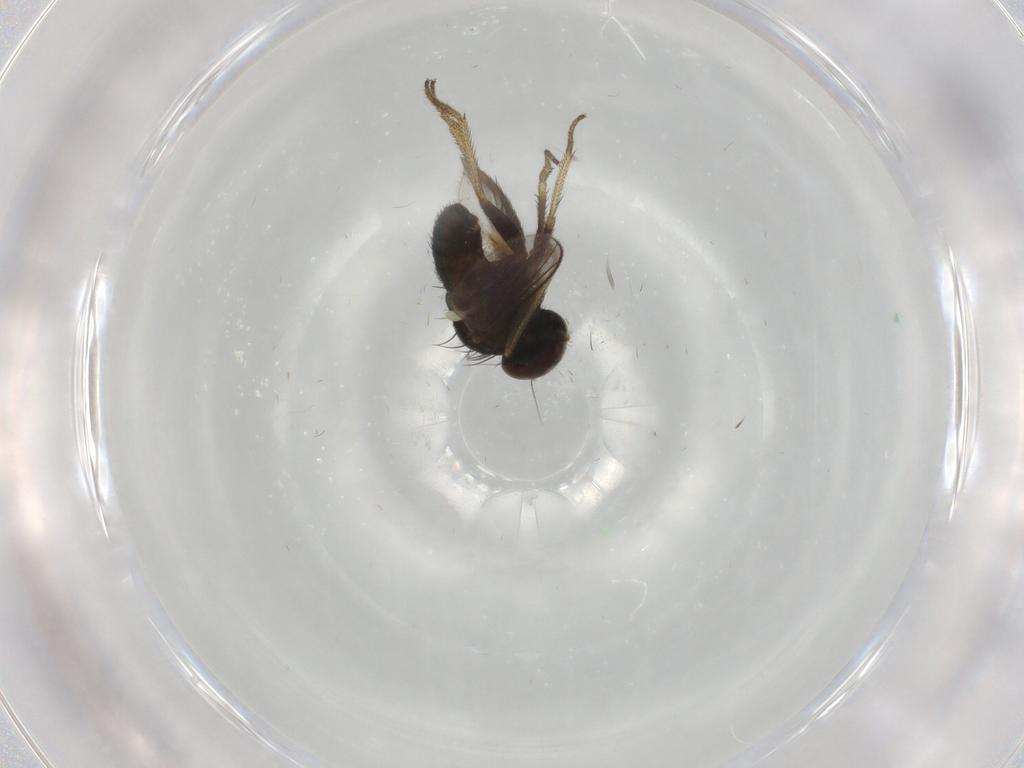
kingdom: Animalia
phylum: Arthropoda
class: Insecta
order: Diptera
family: Dolichopodidae
